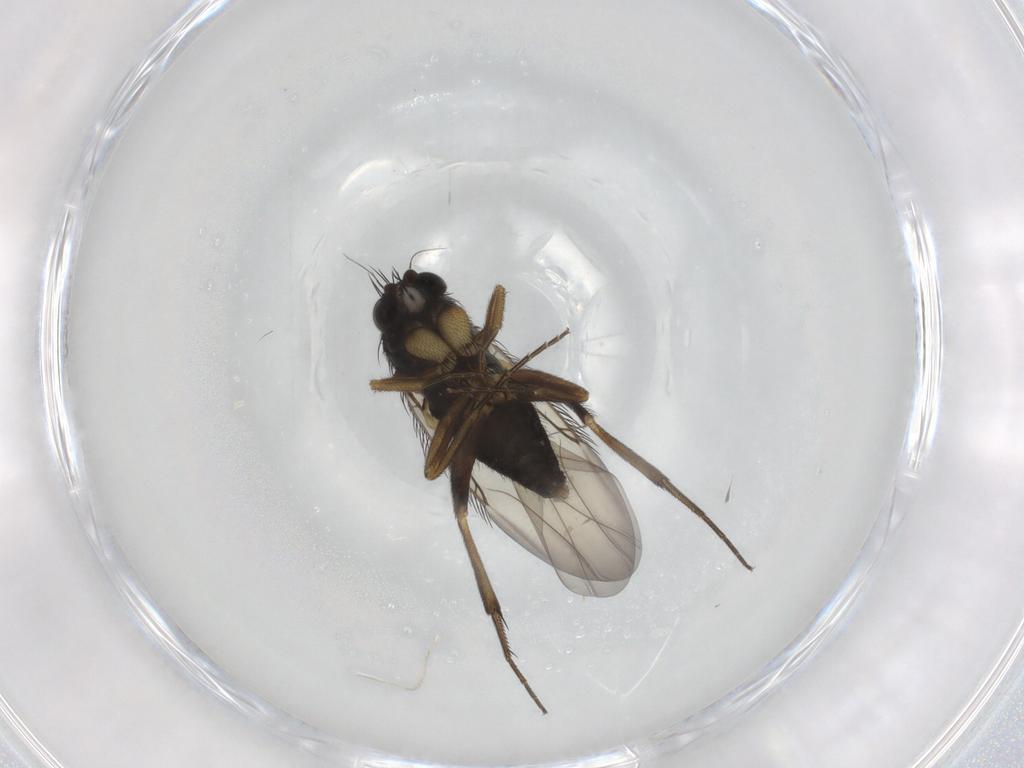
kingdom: Animalia
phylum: Arthropoda
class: Insecta
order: Diptera
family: Phoridae
